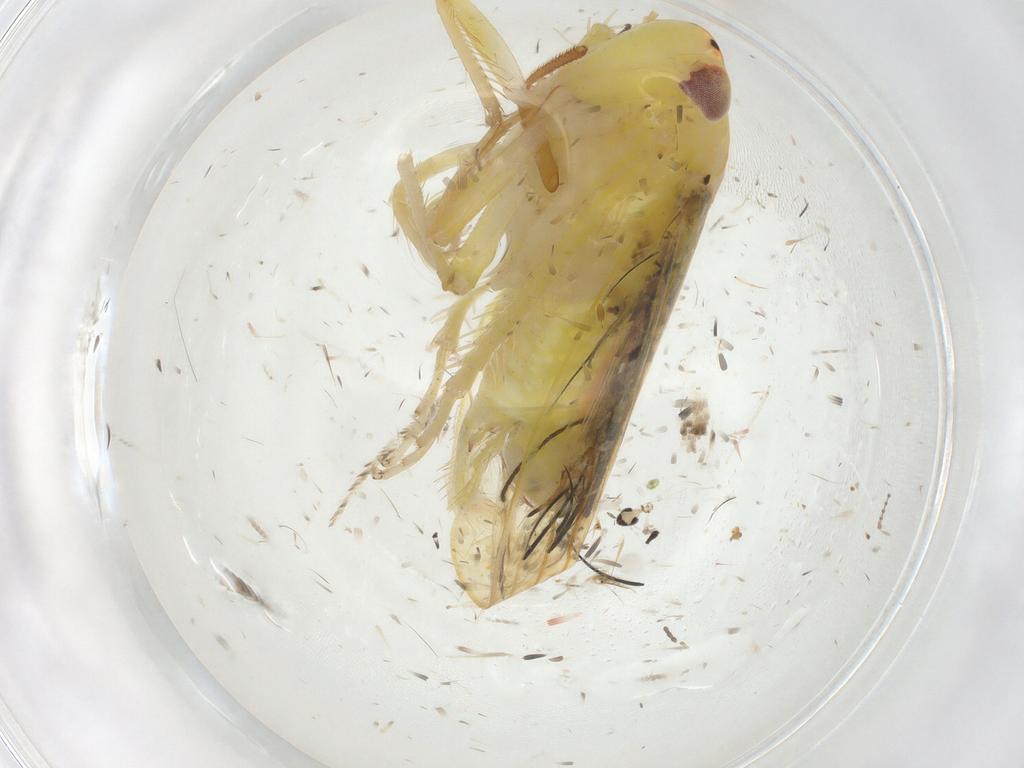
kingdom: Animalia
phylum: Arthropoda
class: Insecta
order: Hemiptera
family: Cicadellidae
